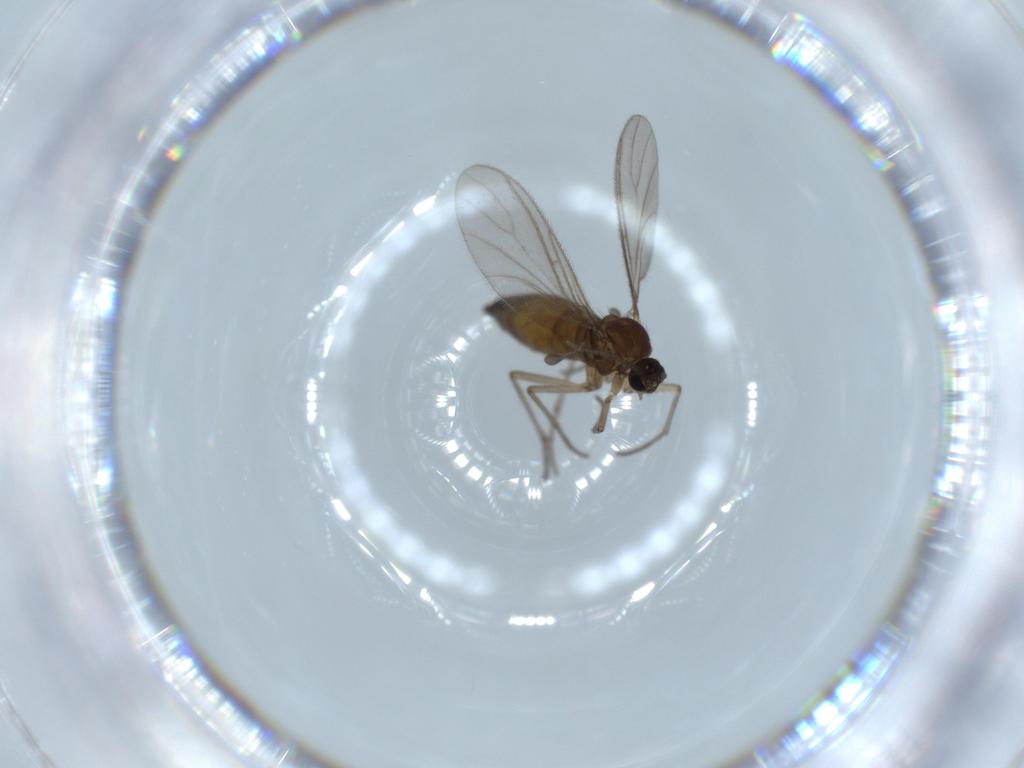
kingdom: Animalia
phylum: Arthropoda
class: Insecta
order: Diptera
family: Sciaridae
